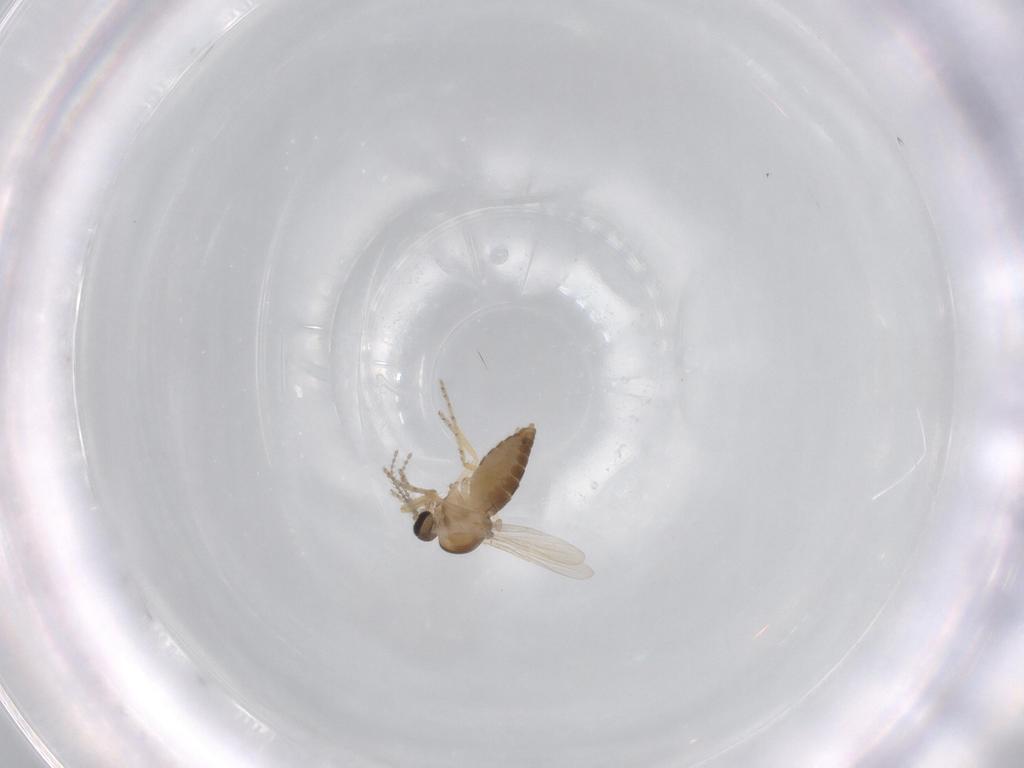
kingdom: Animalia
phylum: Arthropoda
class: Insecta
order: Diptera
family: Ceratopogonidae
